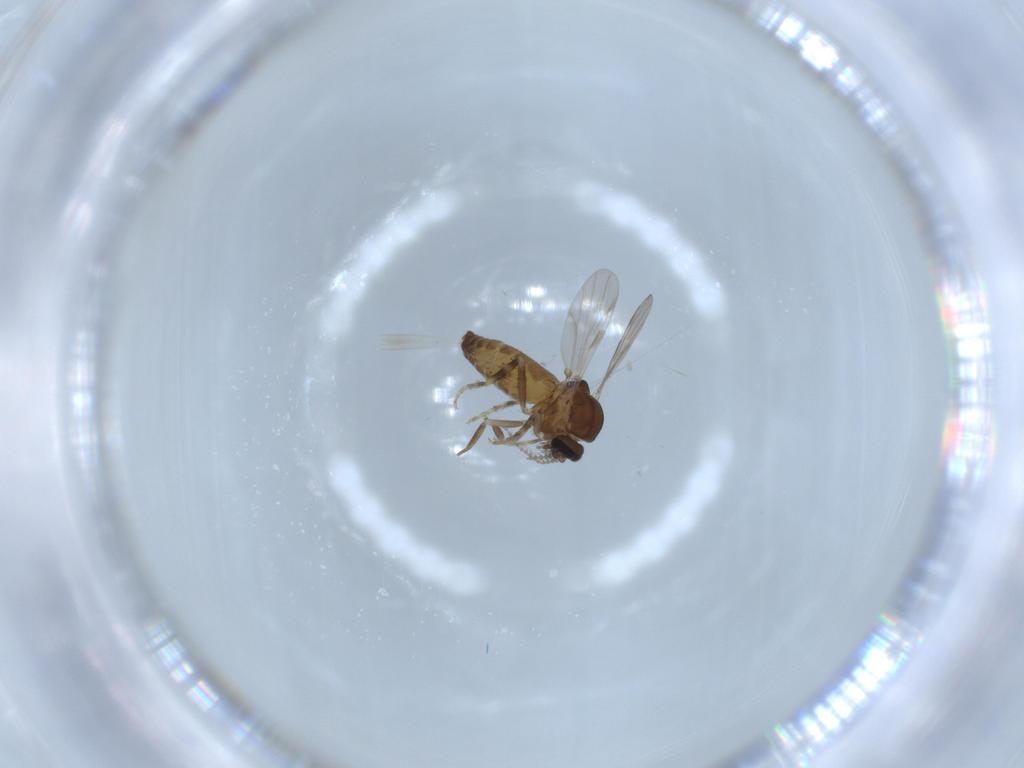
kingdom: Animalia
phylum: Arthropoda
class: Insecta
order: Diptera
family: Ceratopogonidae
